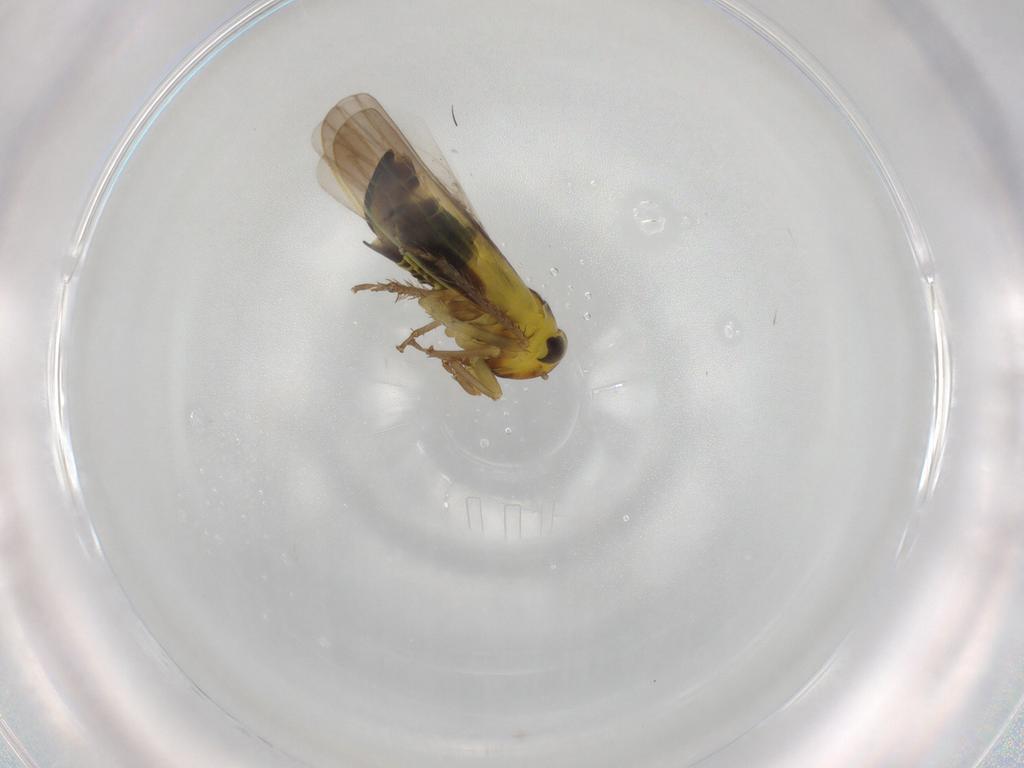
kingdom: Animalia
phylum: Arthropoda
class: Insecta
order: Hemiptera
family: Cicadellidae
